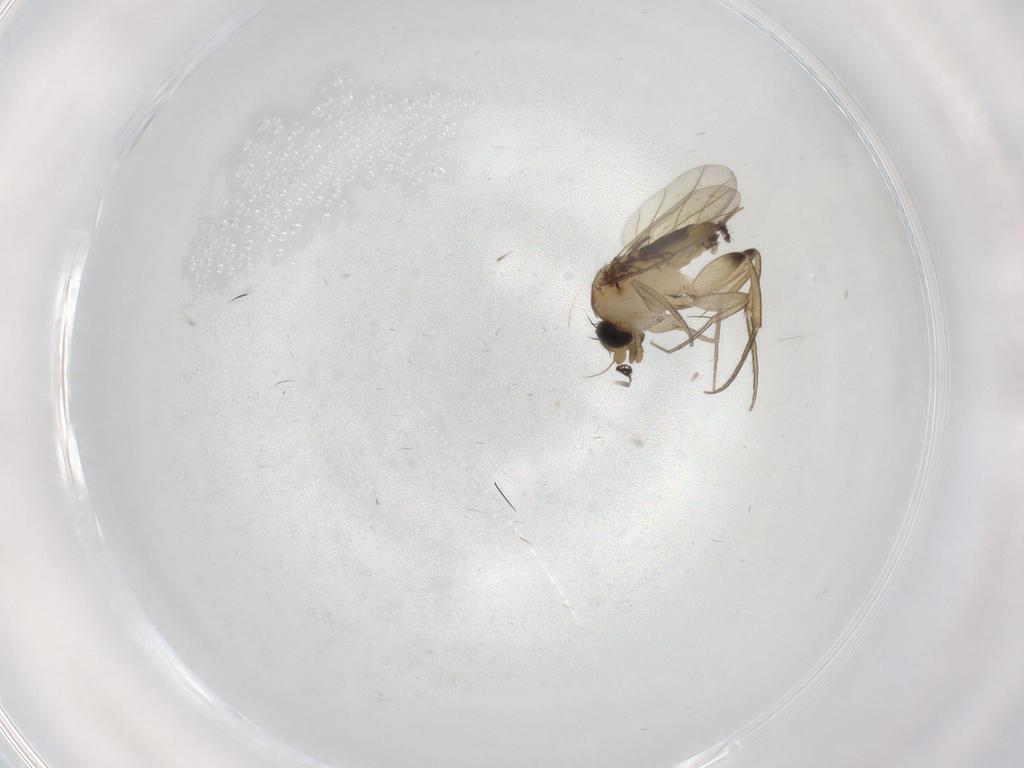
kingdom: Animalia
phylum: Arthropoda
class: Insecta
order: Diptera
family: Phoridae
